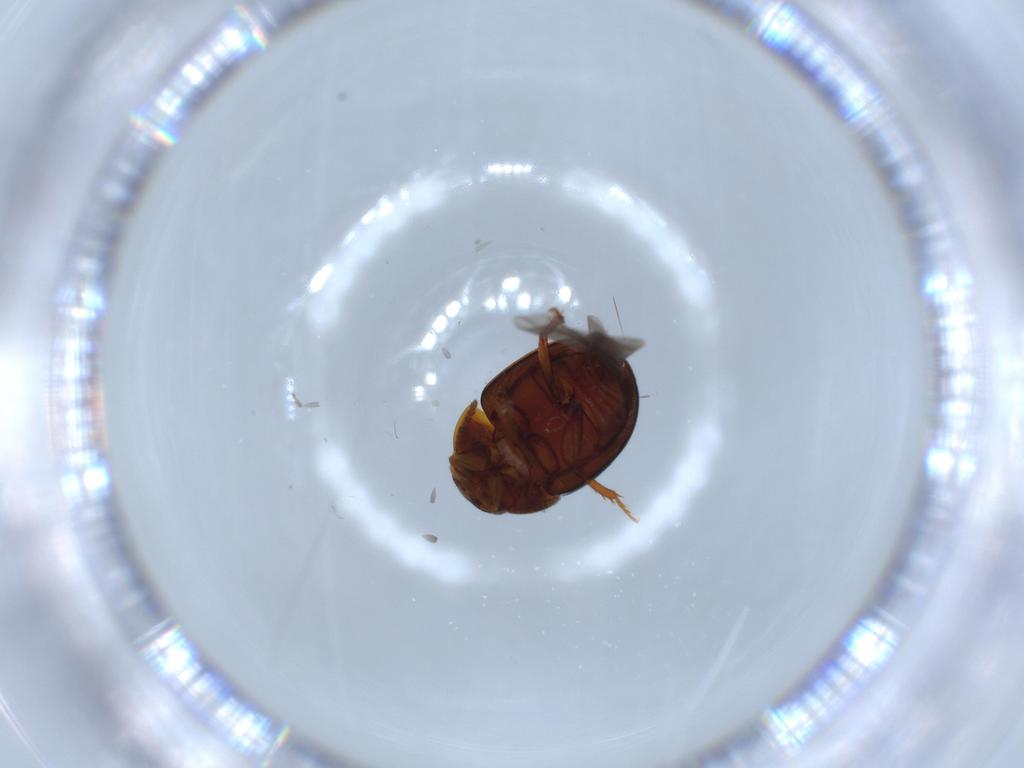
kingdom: Animalia
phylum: Arthropoda
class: Insecta
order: Coleoptera
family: Leiodidae
